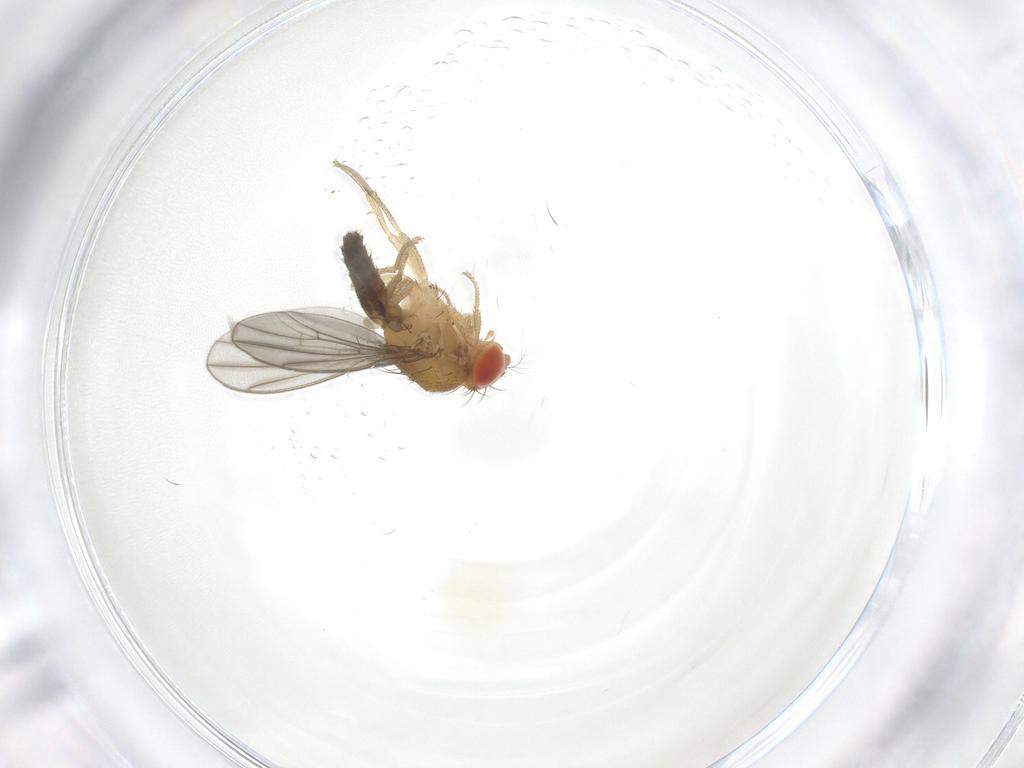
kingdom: Animalia
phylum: Arthropoda
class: Insecta
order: Diptera
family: Drosophilidae
